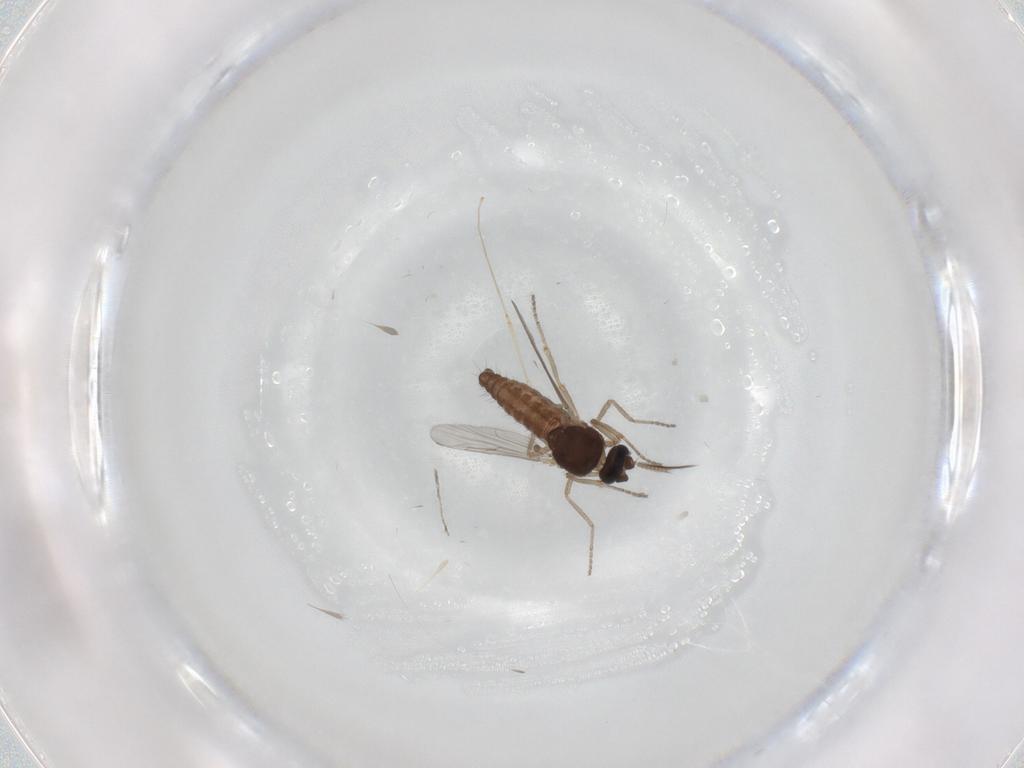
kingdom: Animalia
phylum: Arthropoda
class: Insecta
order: Diptera
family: Ceratopogonidae
